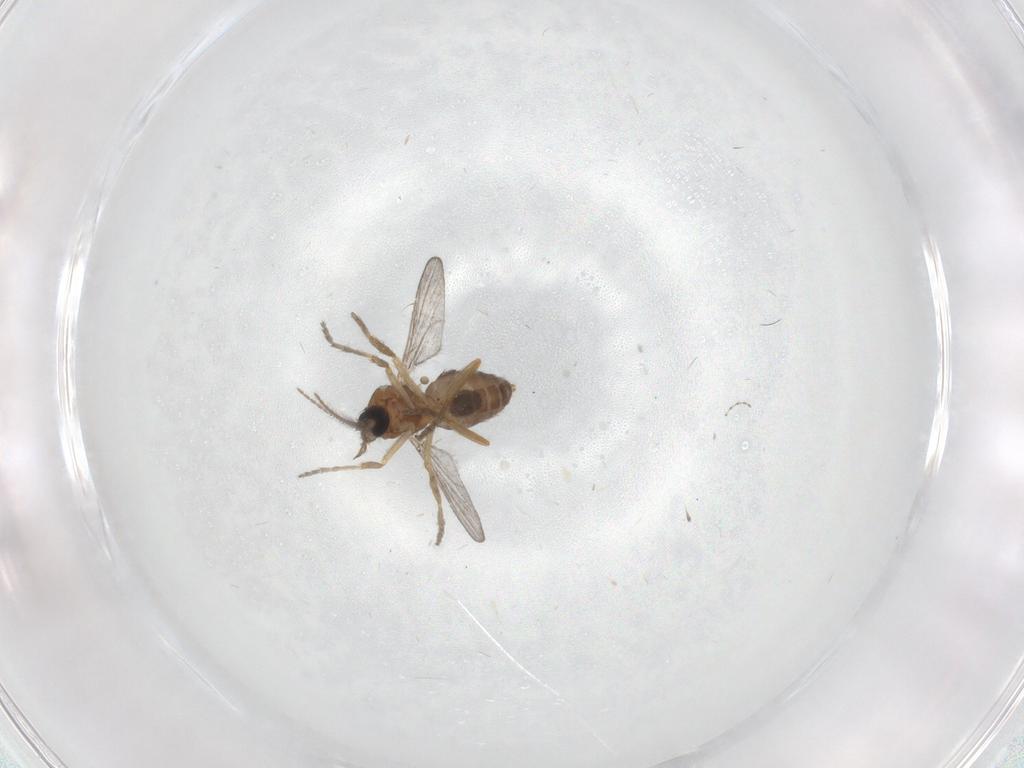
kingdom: Animalia
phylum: Arthropoda
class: Insecta
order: Diptera
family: Ceratopogonidae
